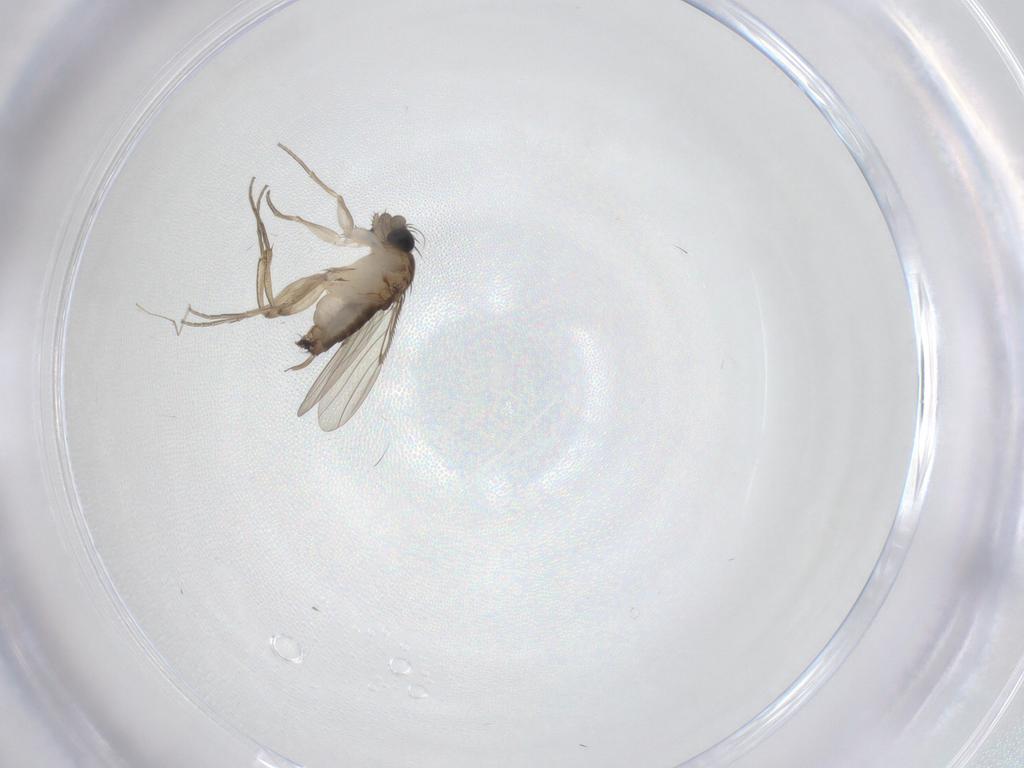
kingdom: Animalia
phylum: Arthropoda
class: Insecta
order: Diptera
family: Phoridae
